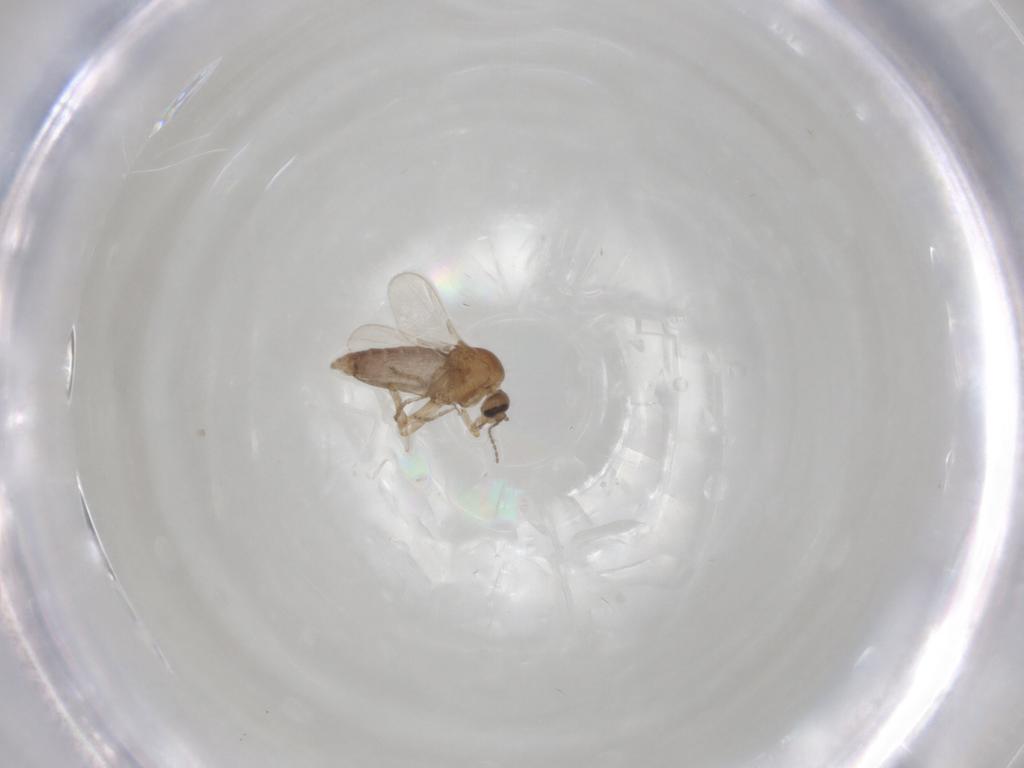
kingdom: Animalia
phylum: Arthropoda
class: Insecta
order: Diptera
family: Ceratopogonidae
